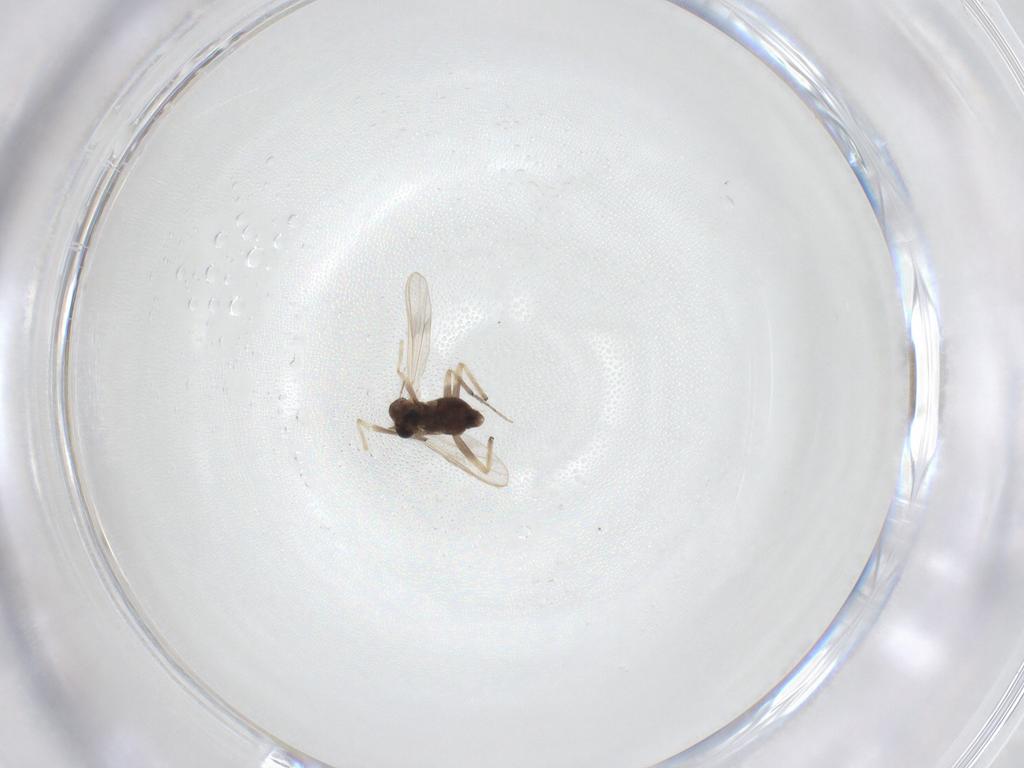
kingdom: Animalia
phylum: Arthropoda
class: Insecta
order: Diptera
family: Chironomidae
